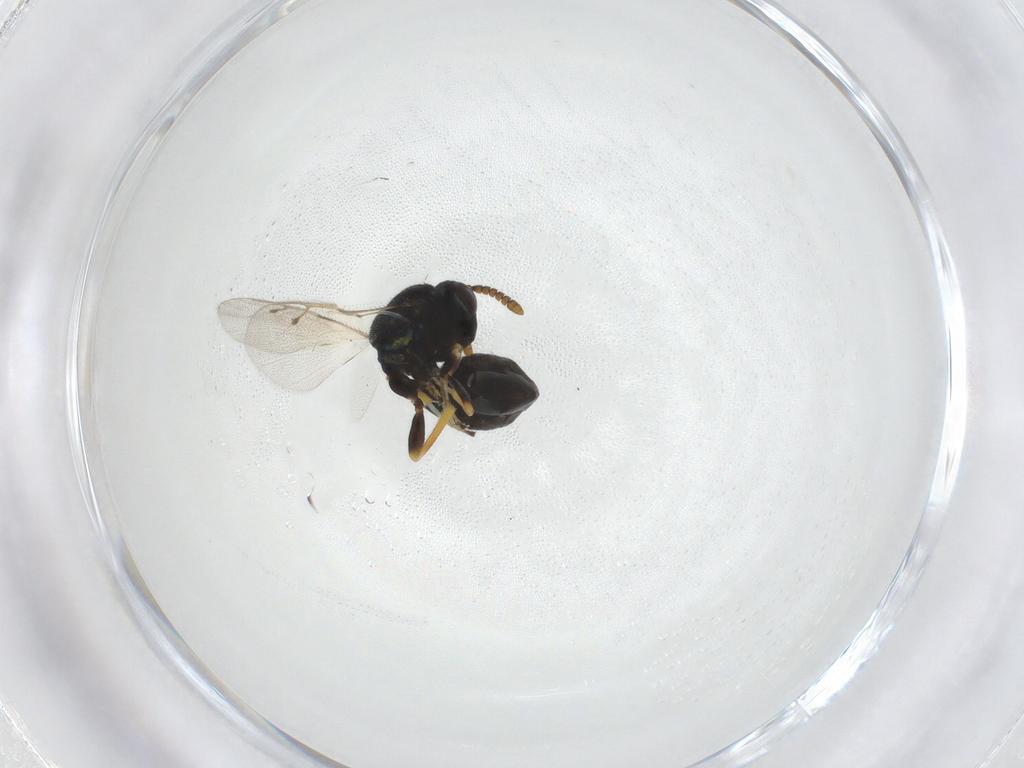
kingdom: Animalia
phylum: Arthropoda
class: Insecta
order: Hymenoptera
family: Pteromalidae
